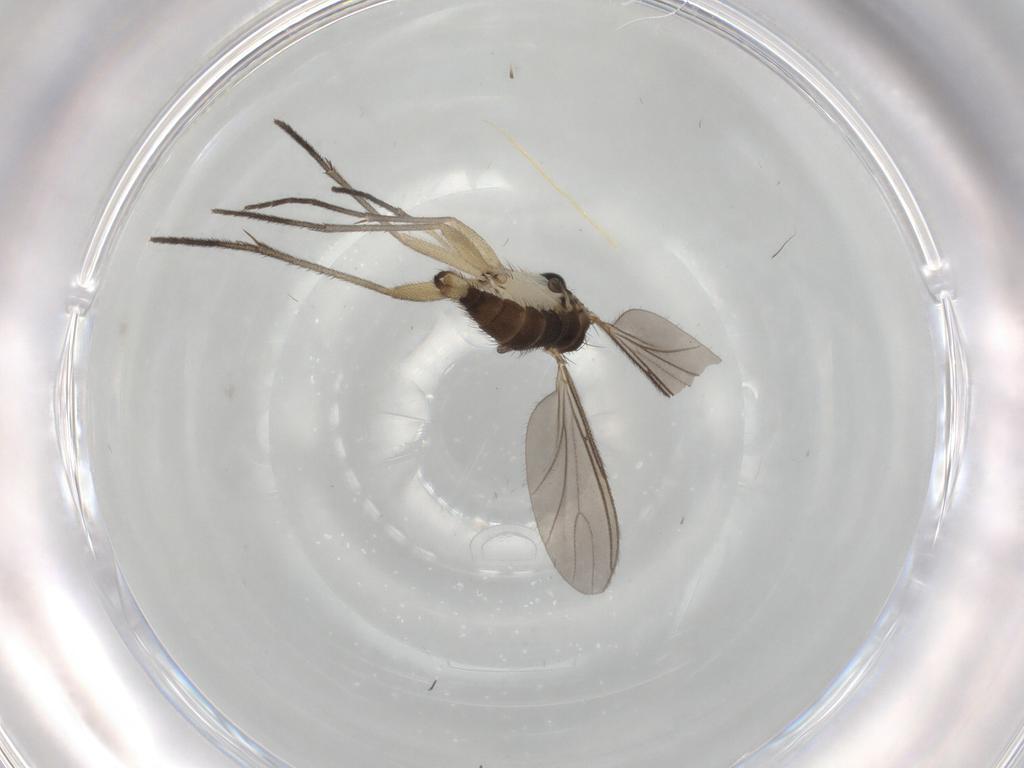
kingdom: Animalia
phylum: Arthropoda
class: Insecta
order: Diptera
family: Sciaridae
